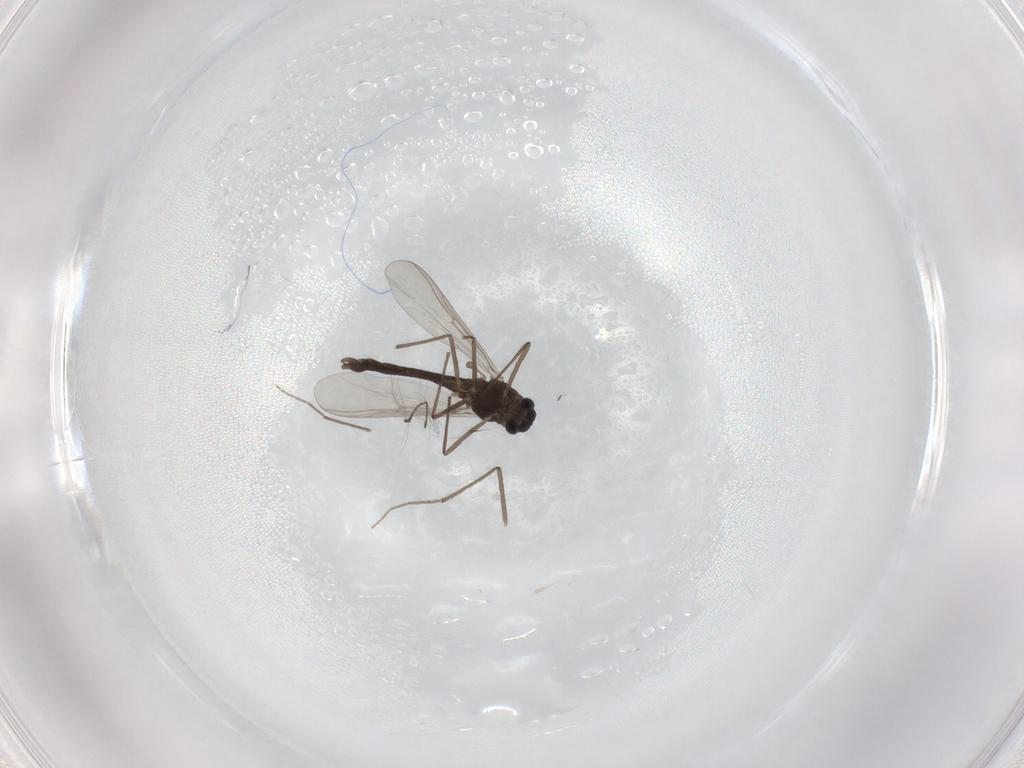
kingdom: Animalia
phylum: Arthropoda
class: Insecta
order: Diptera
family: Chironomidae
